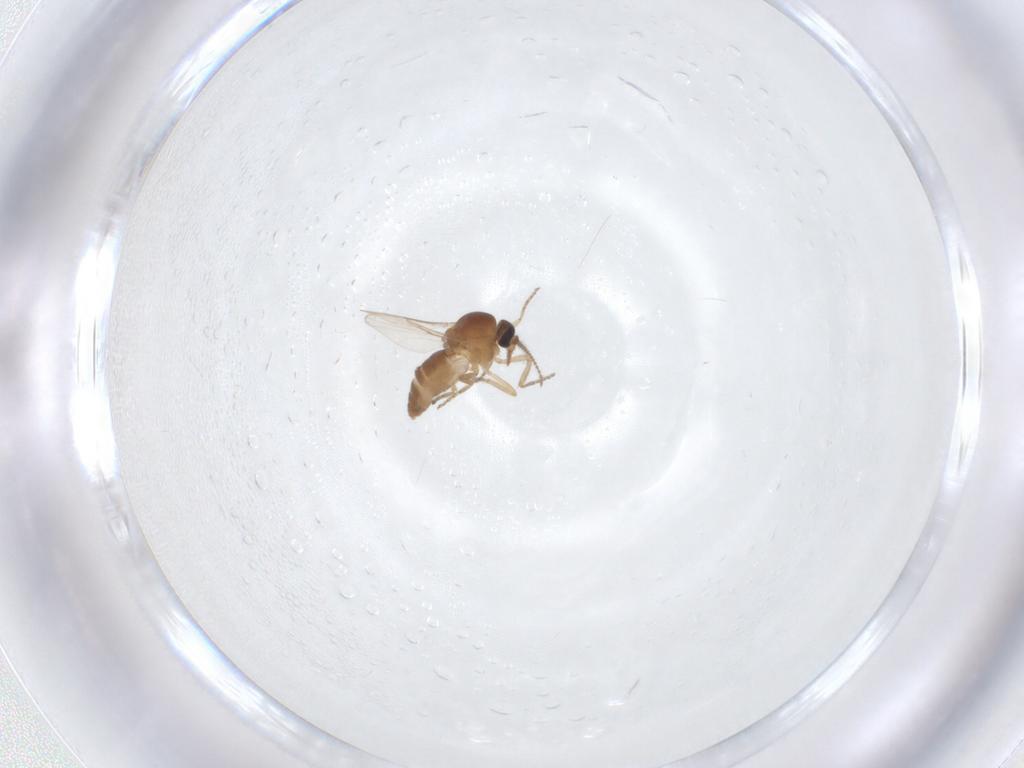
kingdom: Animalia
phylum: Arthropoda
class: Insecta
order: Diptera
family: Ceratopogonidae
